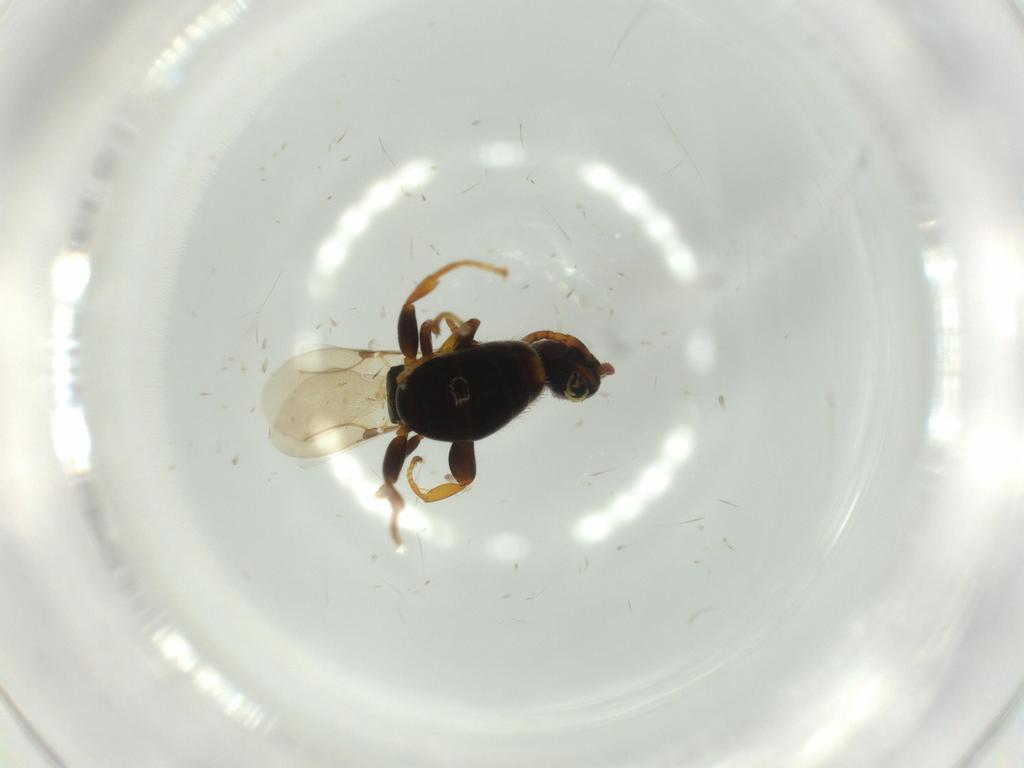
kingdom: Animalia
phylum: Arthropoda
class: Insecta
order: Hymenoptera
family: Bethylidae
